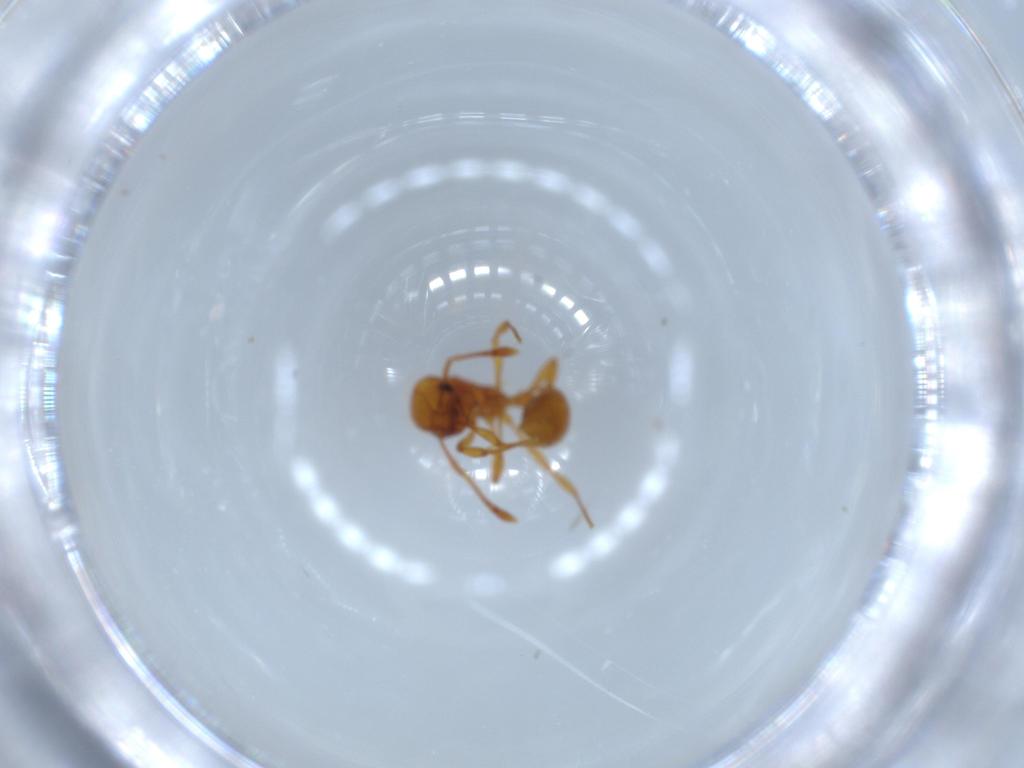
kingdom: Animalia
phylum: Arthropoda
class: Insecta
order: Hymenoptera
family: Formicidae
